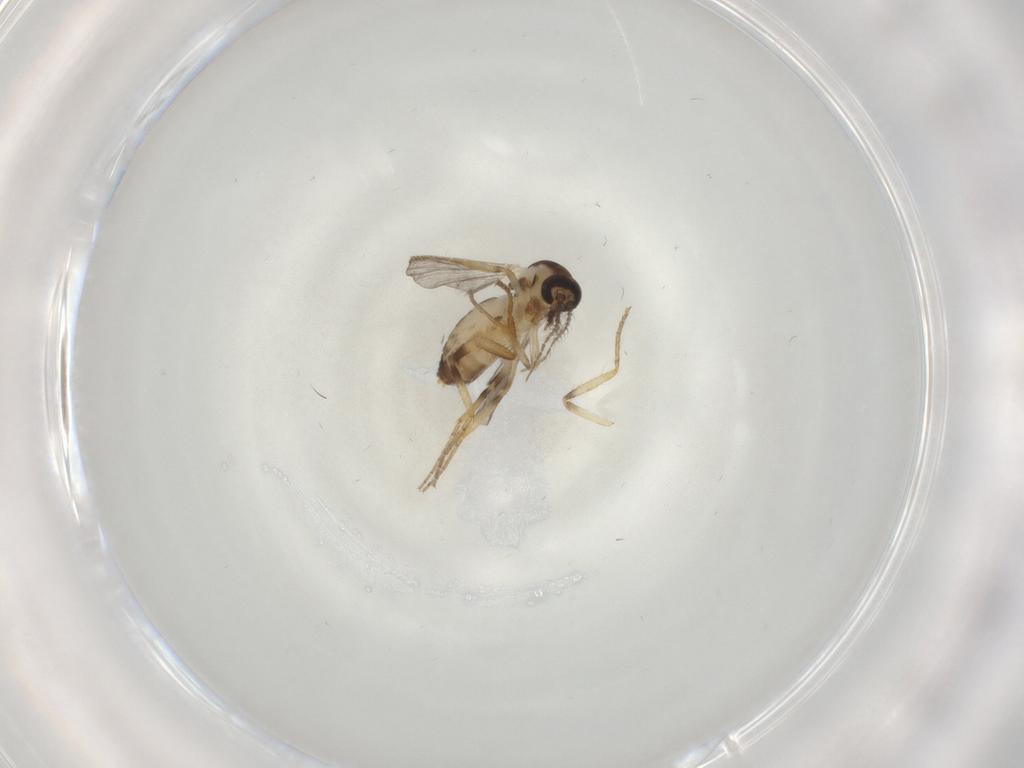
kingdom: Animalia
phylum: Arthropoda
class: Insecta
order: Diptera
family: Ceratopogonidae
